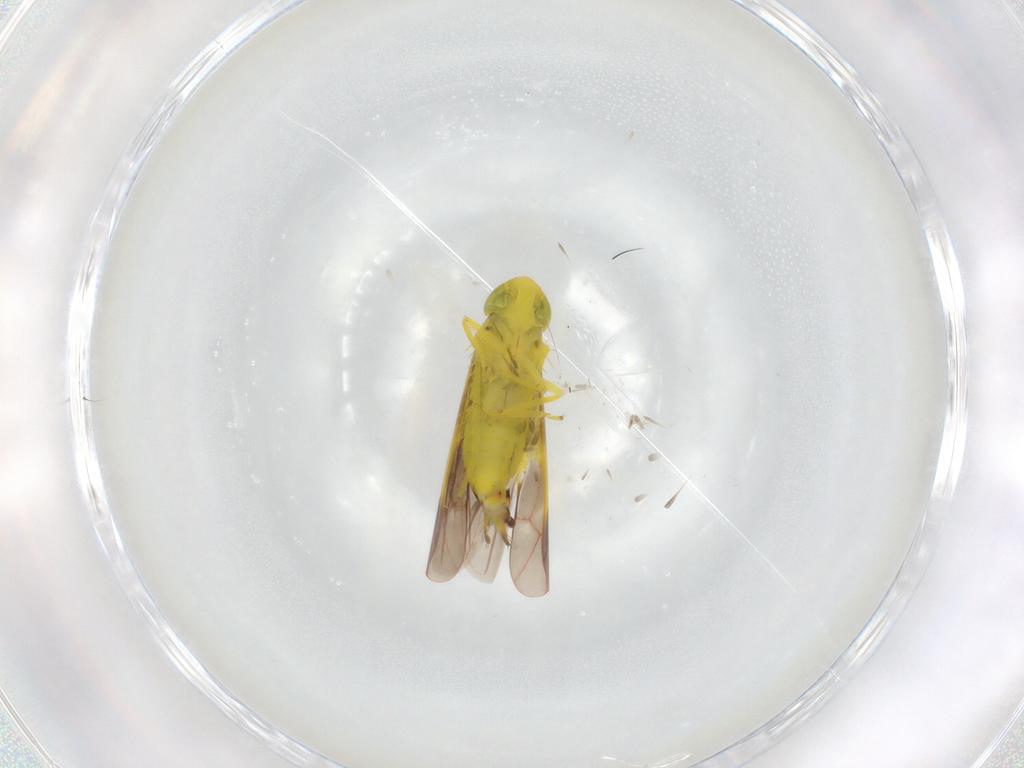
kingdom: Animalia
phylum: Arthropoda
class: Insecta
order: Hemiptera
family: Cicadellidae
